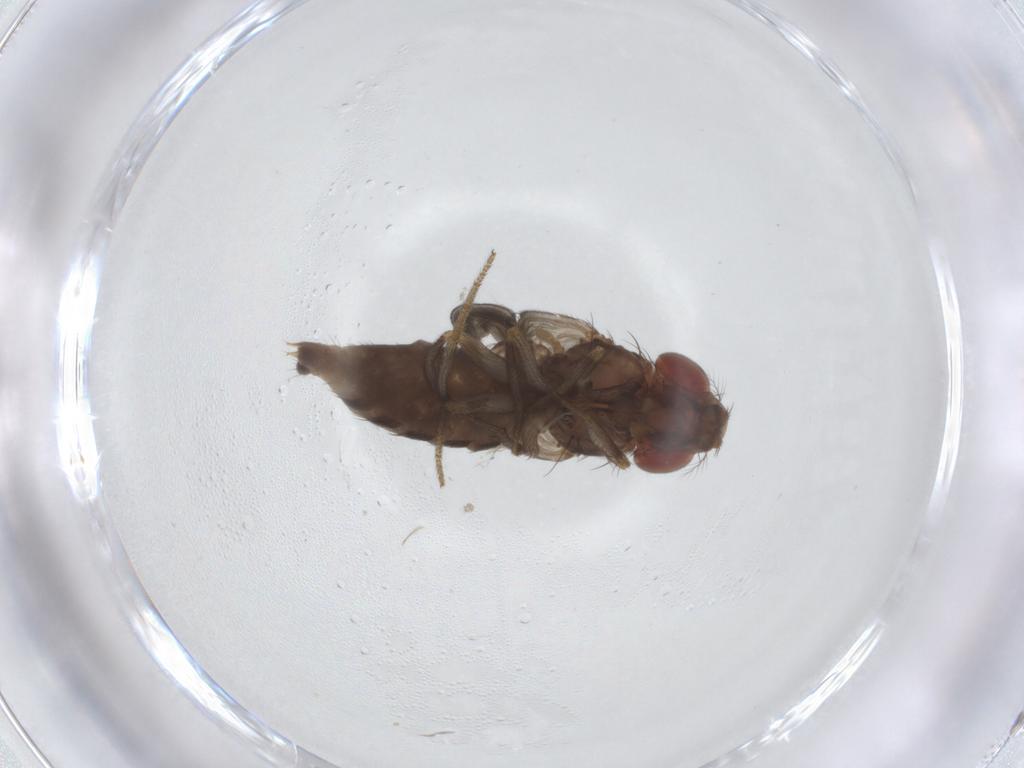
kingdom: Animalia
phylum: Arthropoda
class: Insecta
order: Diptera
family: Drosophilidae
